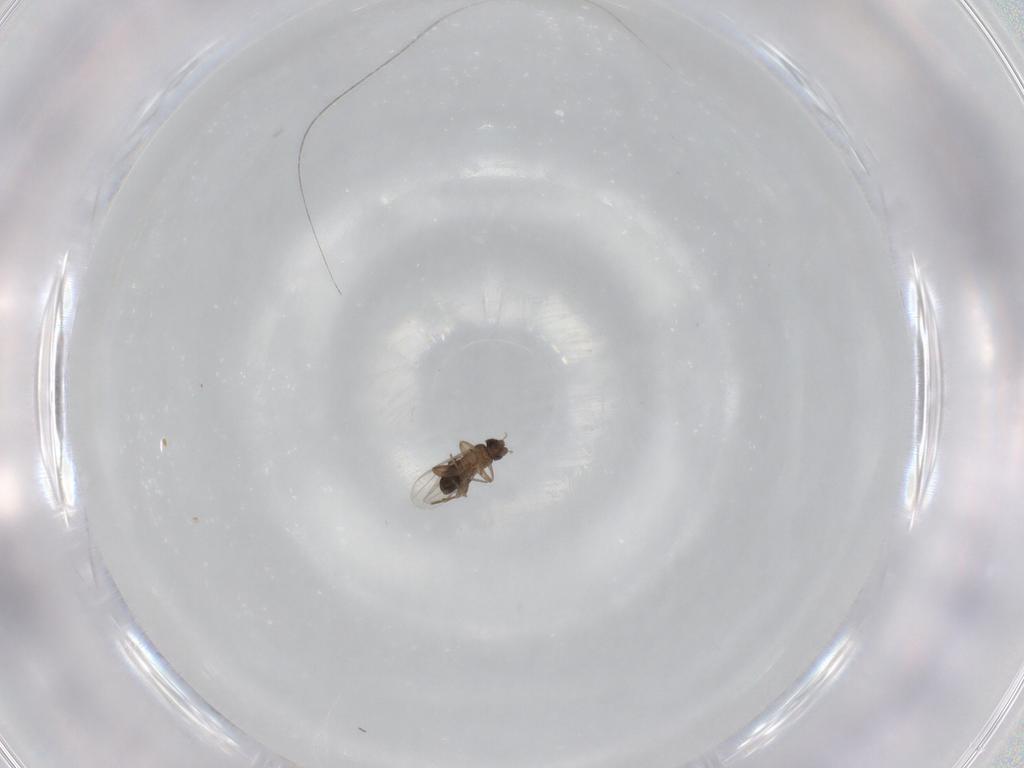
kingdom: Animalia
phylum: Arthropoda
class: Insecta
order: Diptera
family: Phoridae
